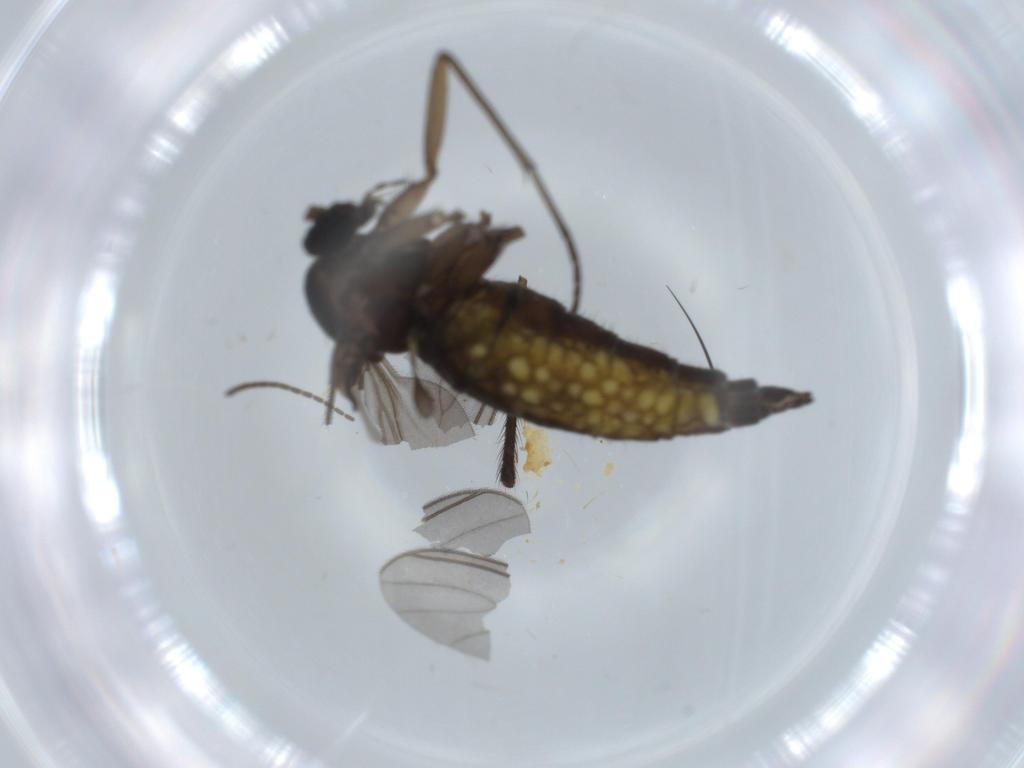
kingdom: Animalia
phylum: Arthropoda
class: Insecta
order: Diptera
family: Sciaridae
